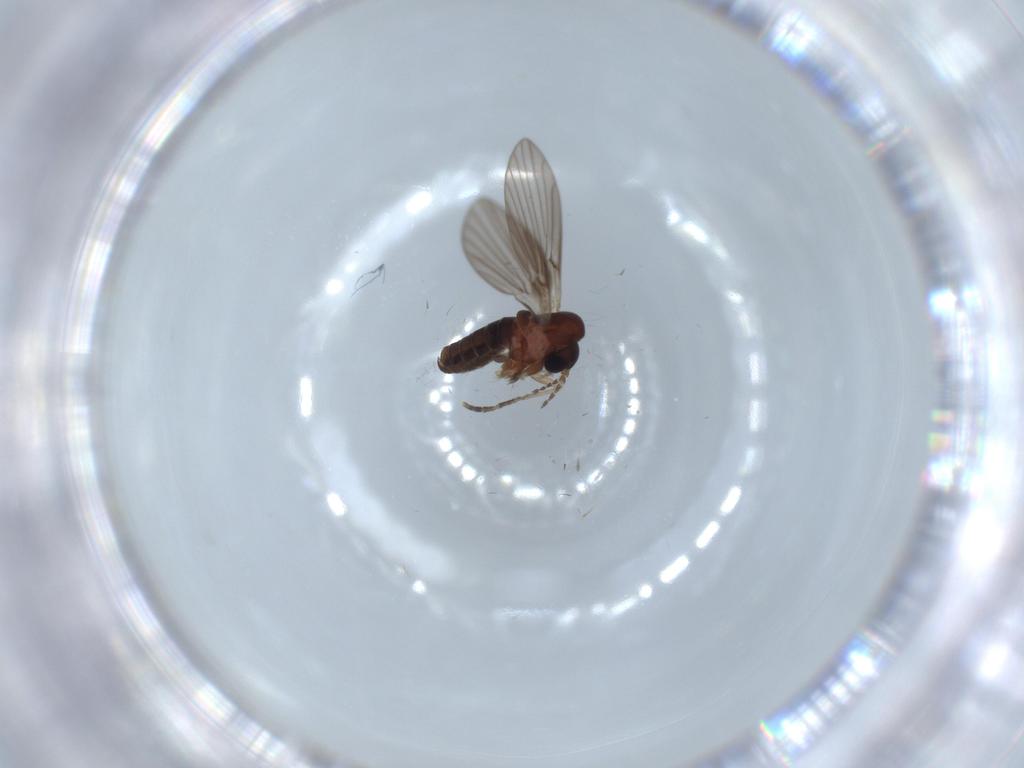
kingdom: Animalia
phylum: Arthropoda
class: Insecta
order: Diptera
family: Psychodidae
